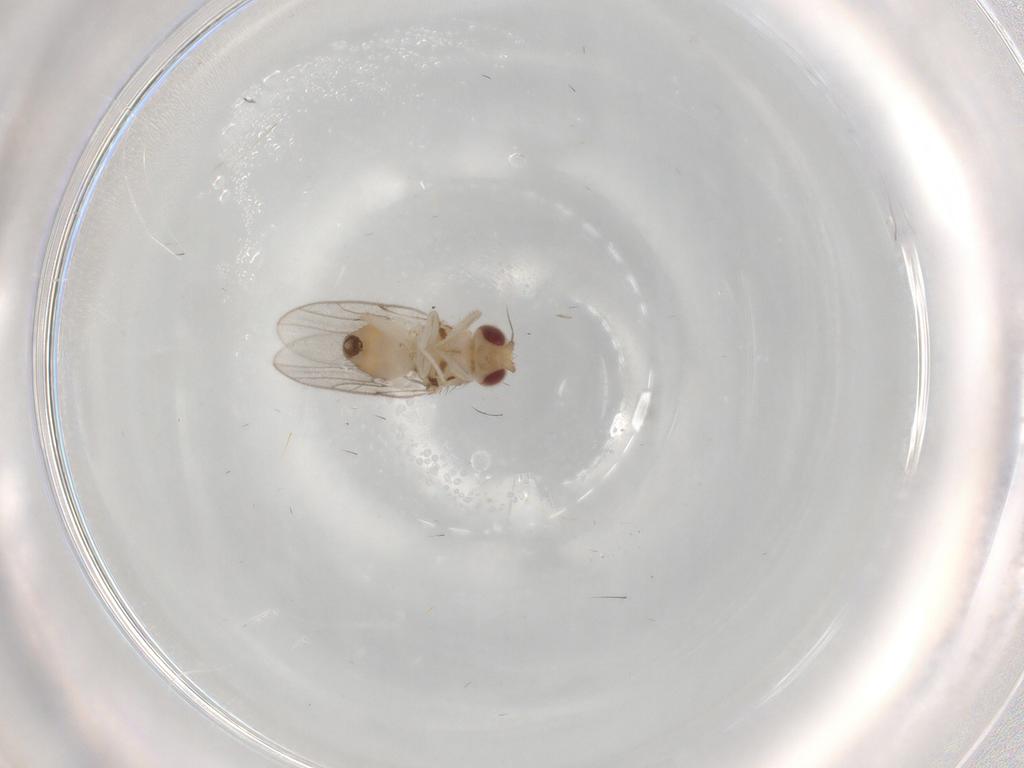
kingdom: Animalia
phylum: Arthropoda
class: Insecta
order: Diptera
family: Chloropidae
